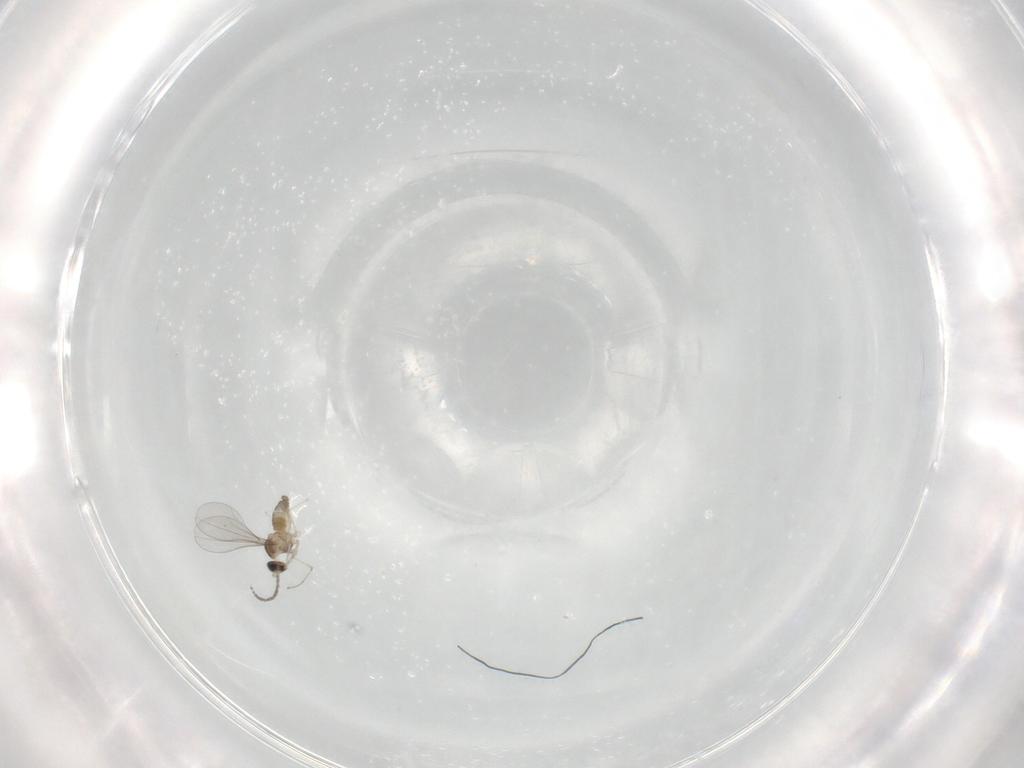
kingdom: Animalia
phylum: Arthropoda
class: Insecta
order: Diptera
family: Cecidomyiidae
